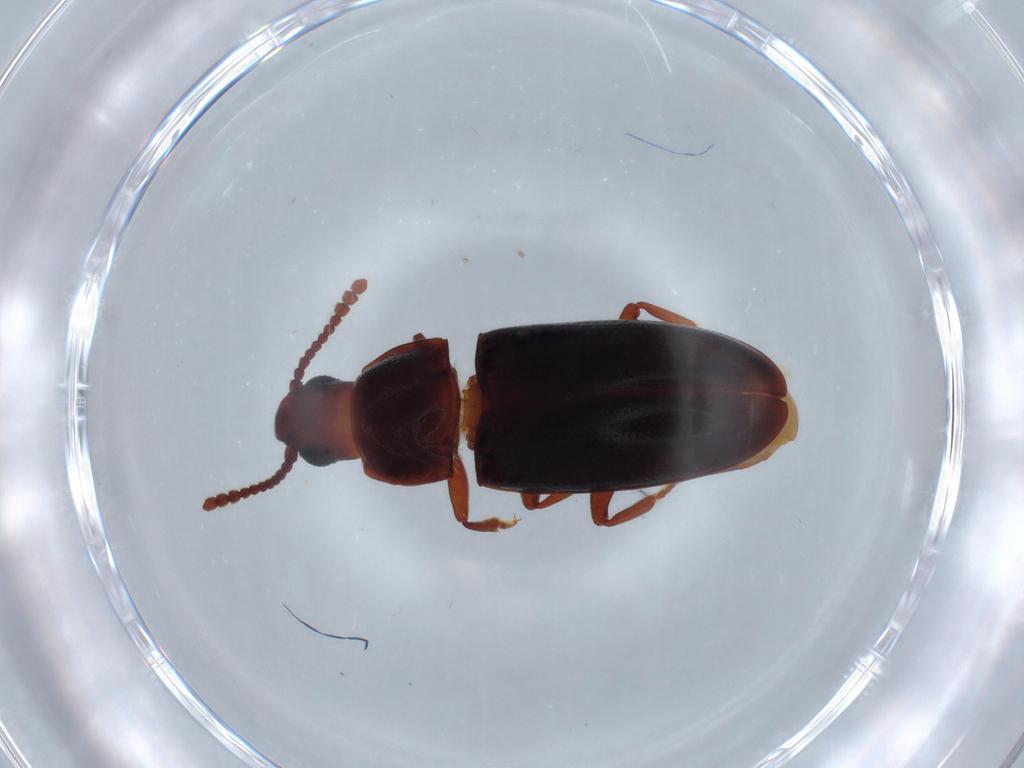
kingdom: Animalia
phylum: Arthropoda
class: Insecta
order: Coleoptera
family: Erotylidae
